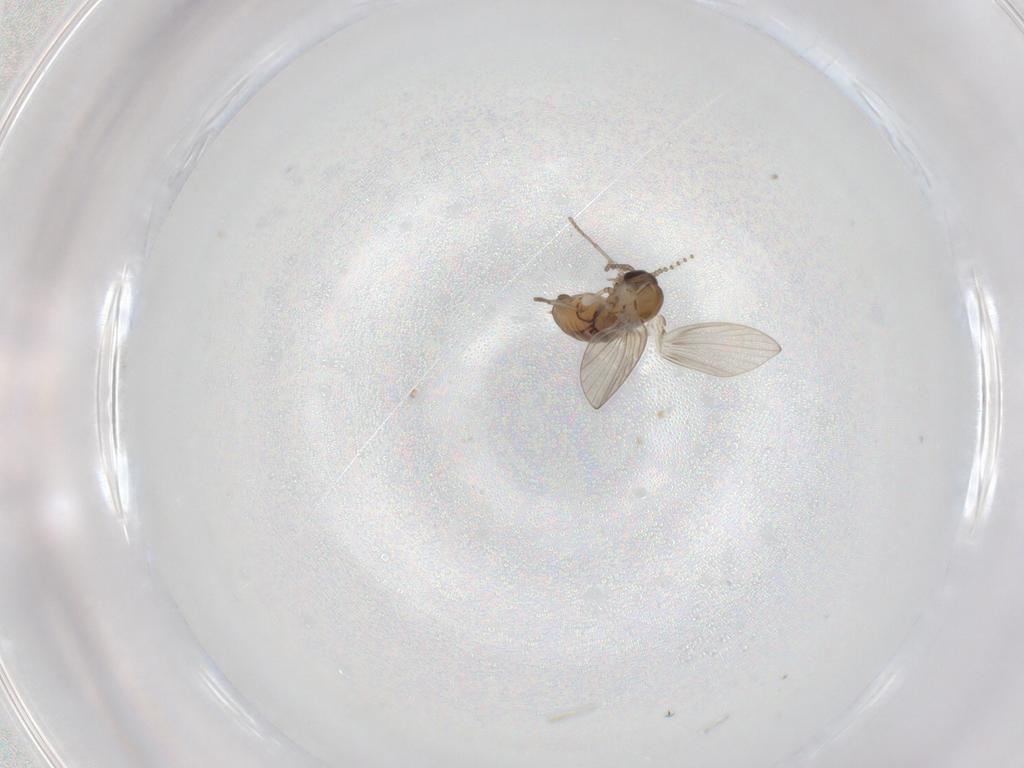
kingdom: Animalia
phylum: Arthropoda
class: Insecta
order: Diptera
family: Psychodidae
